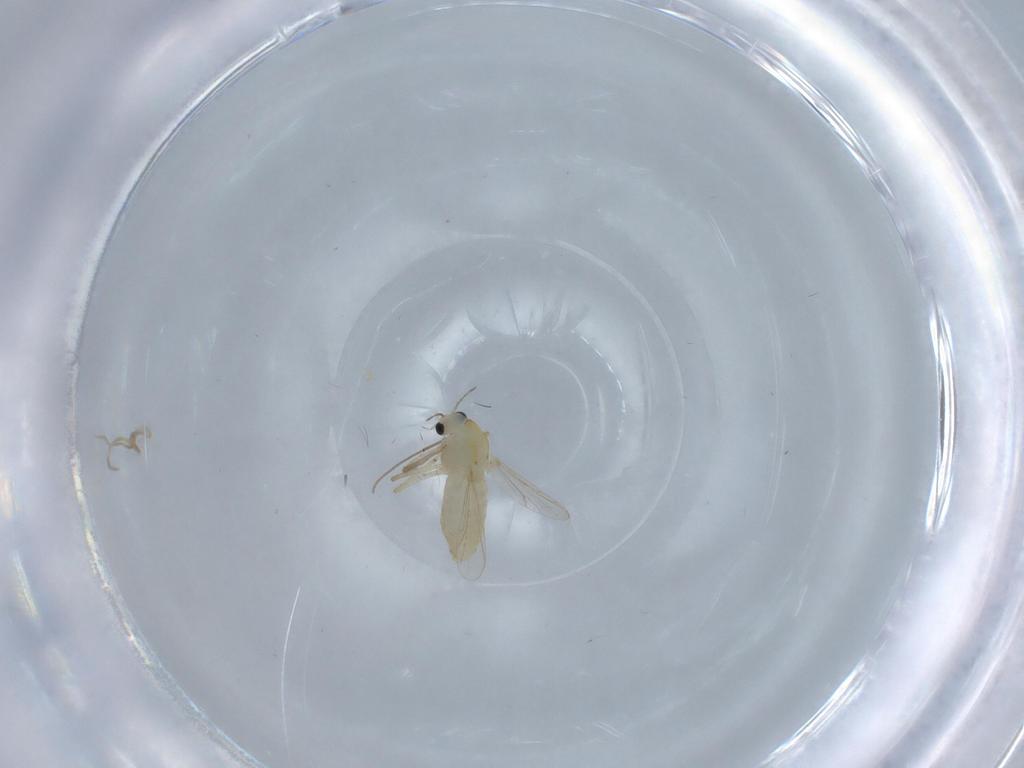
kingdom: Animalia
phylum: Arthropoda
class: Insecta
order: Diptera
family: Chironomidae
